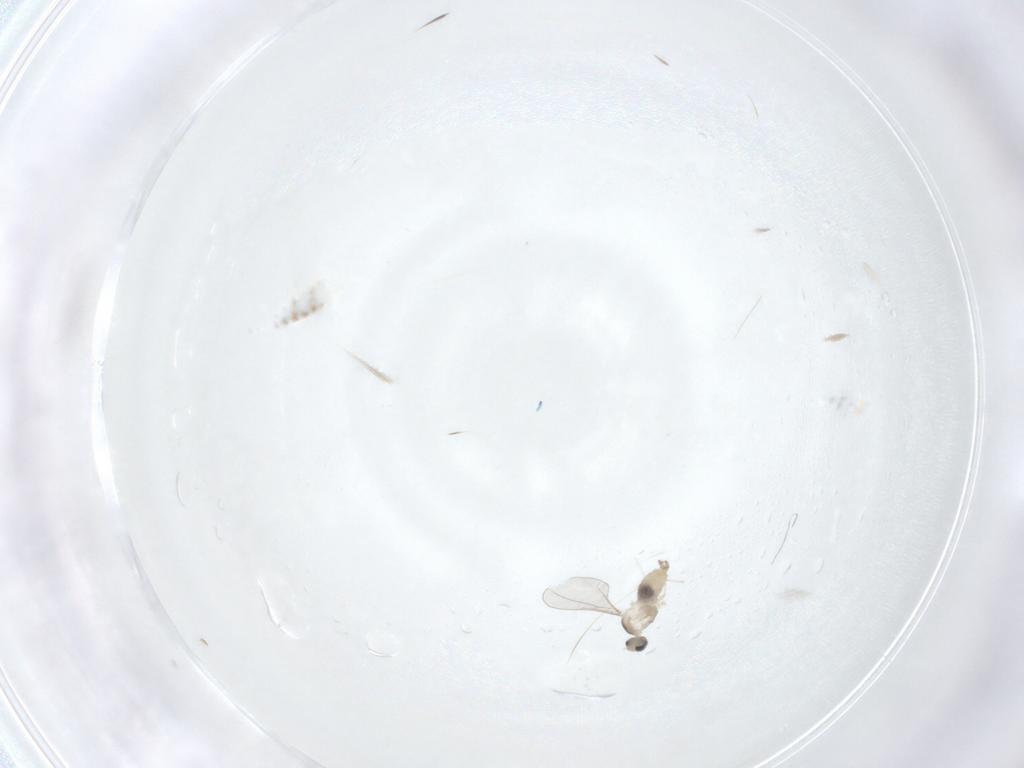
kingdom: Animalia
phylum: Arthropoda
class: Insecta
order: Diptera
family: Cecidomyiidae
